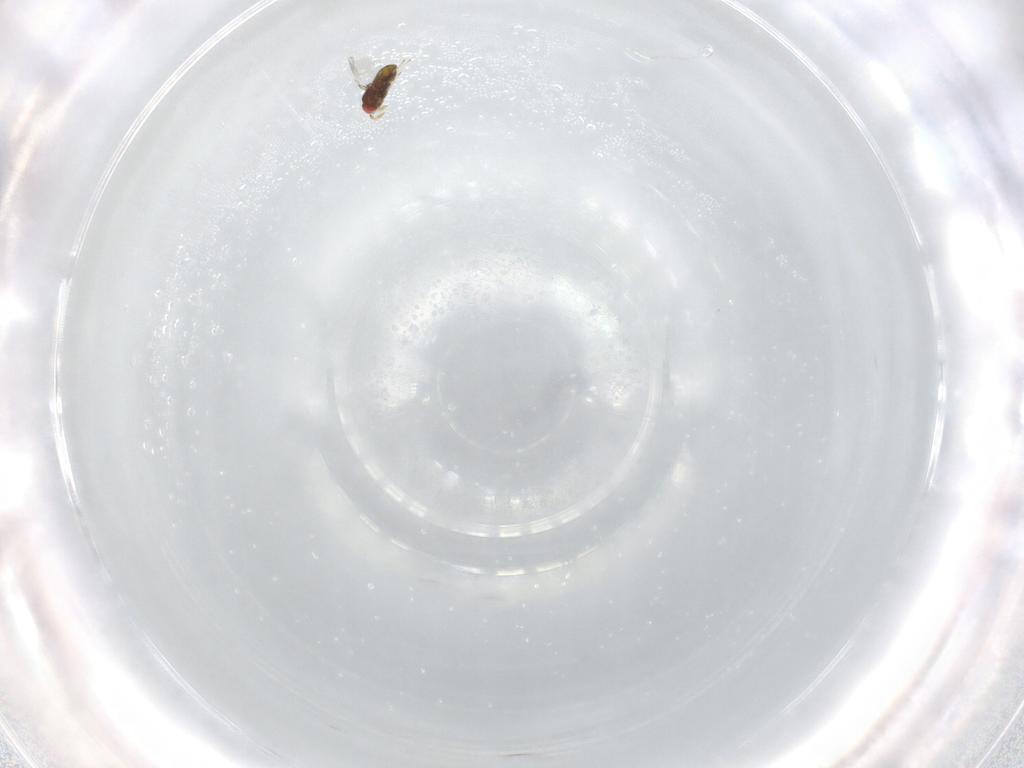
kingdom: Animalia
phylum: Arthropoda
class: Insecta
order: Hymenoptera
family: Braconidae
